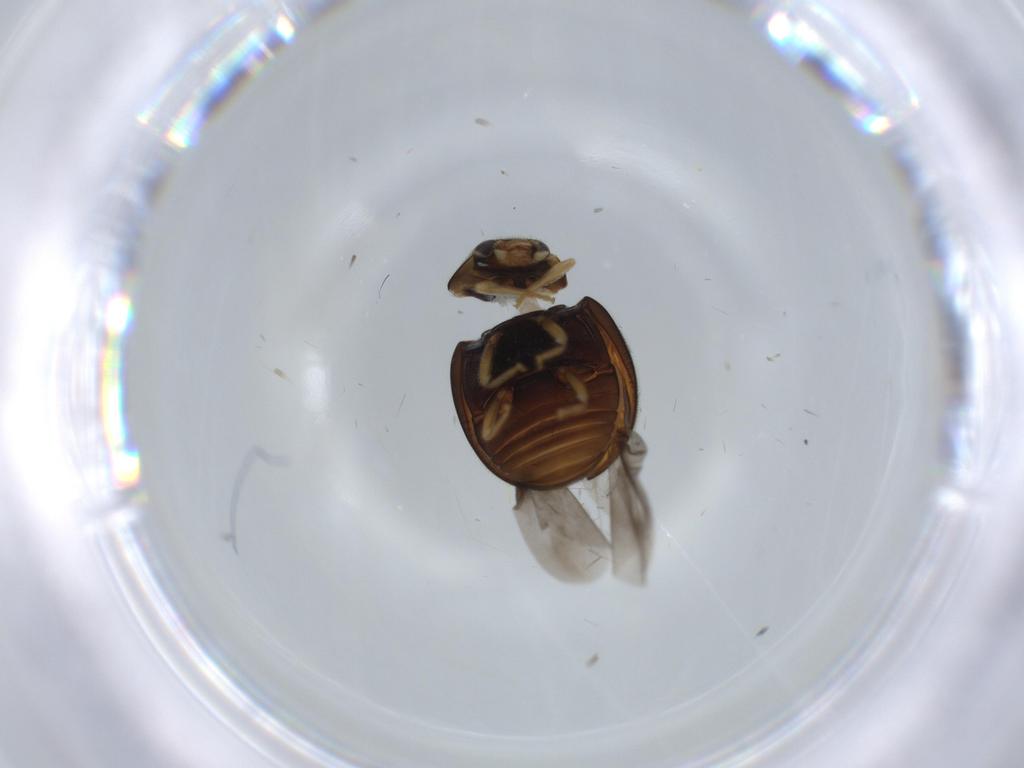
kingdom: Animalia
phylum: Arthropoda
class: Insecta
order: Coleoptera
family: Coccinellidae
